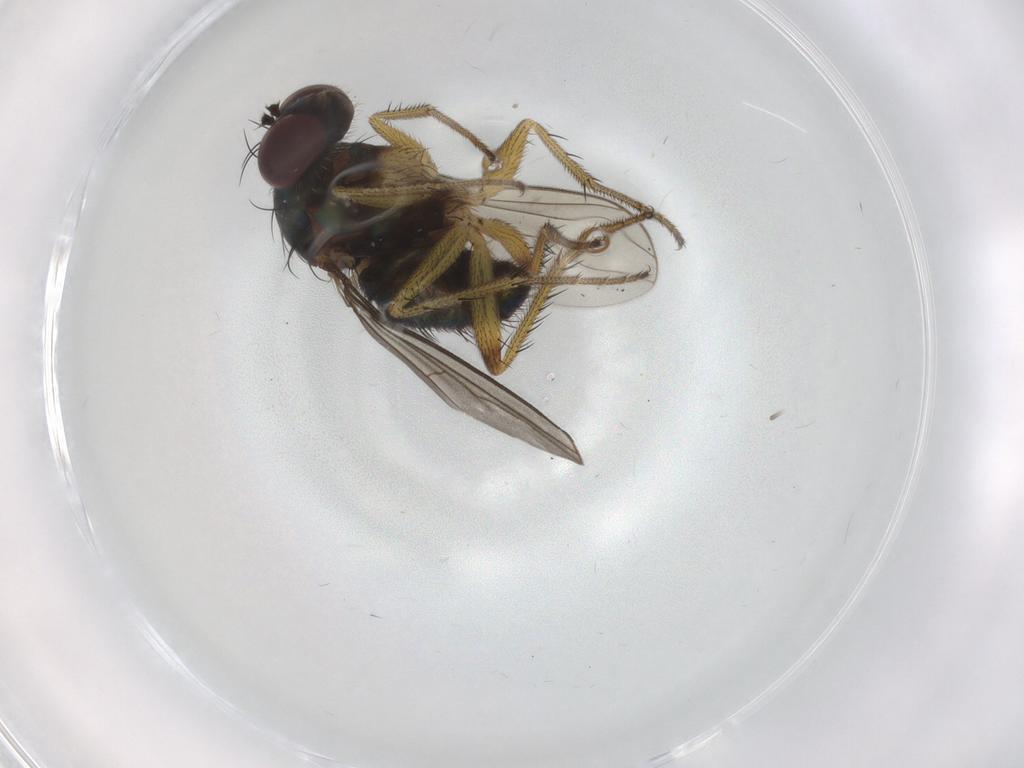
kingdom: Animalia
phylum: Arthropoda
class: Insecta
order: Diptera
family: Dolichopodidae
